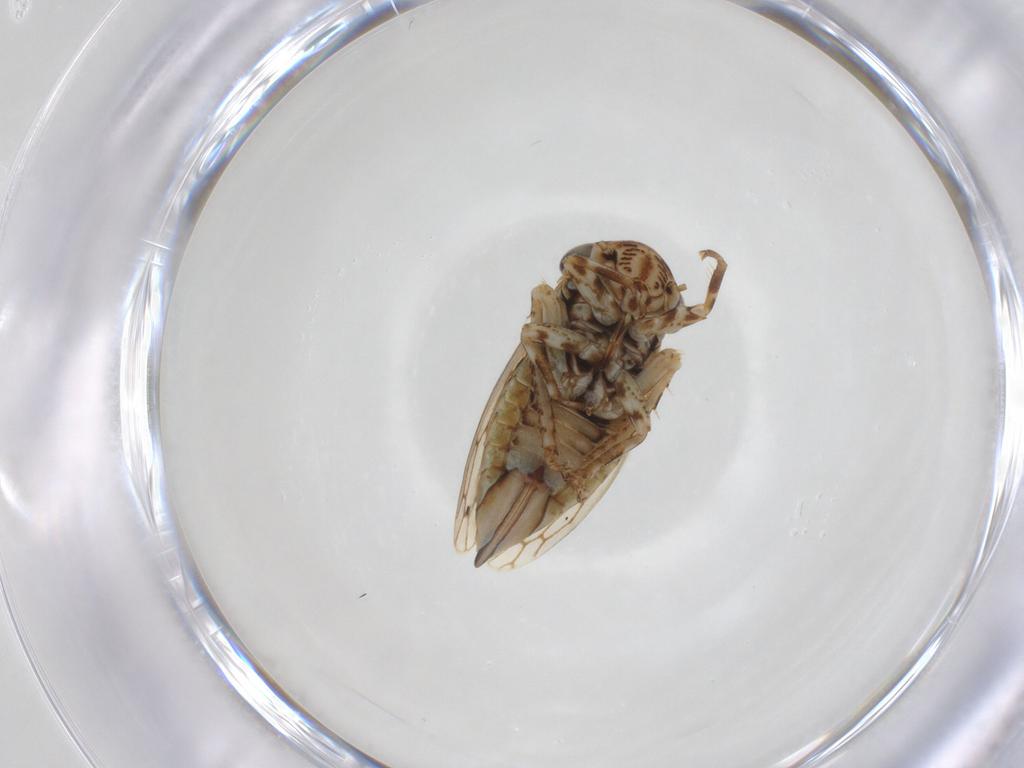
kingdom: Animalia
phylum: Arthropoda
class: Insecta
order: Hemiptera
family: Cicadellidae
